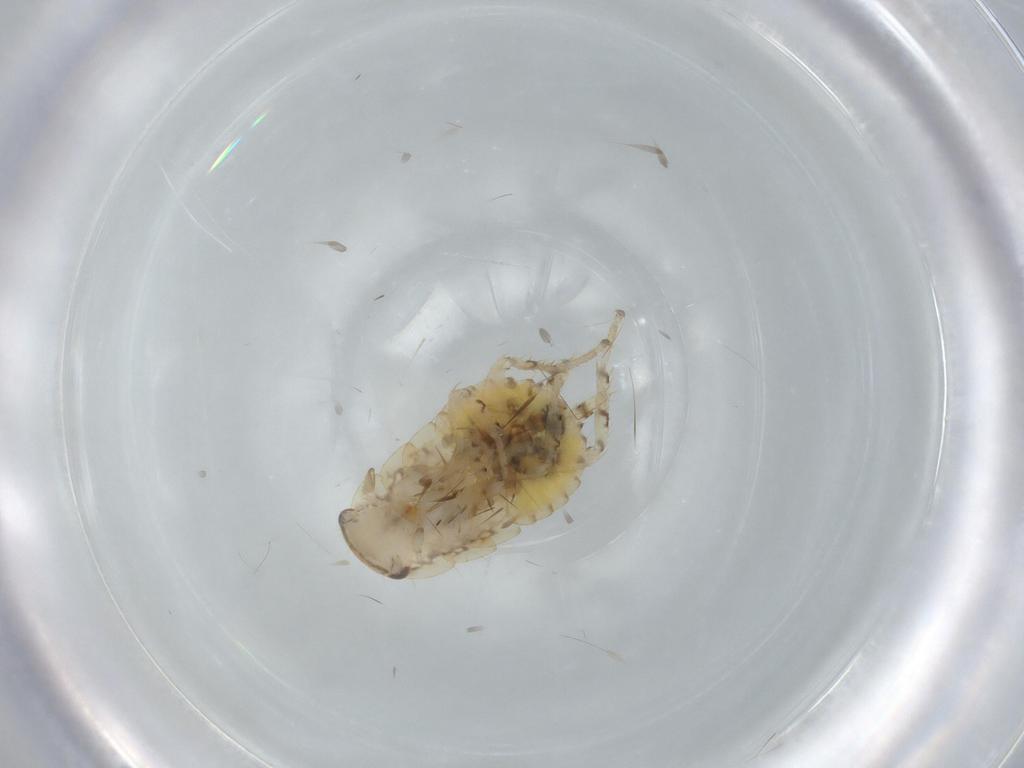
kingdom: Animalia
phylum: Arthropoda
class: Insecta
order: Blattodea
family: Ectobiidae
